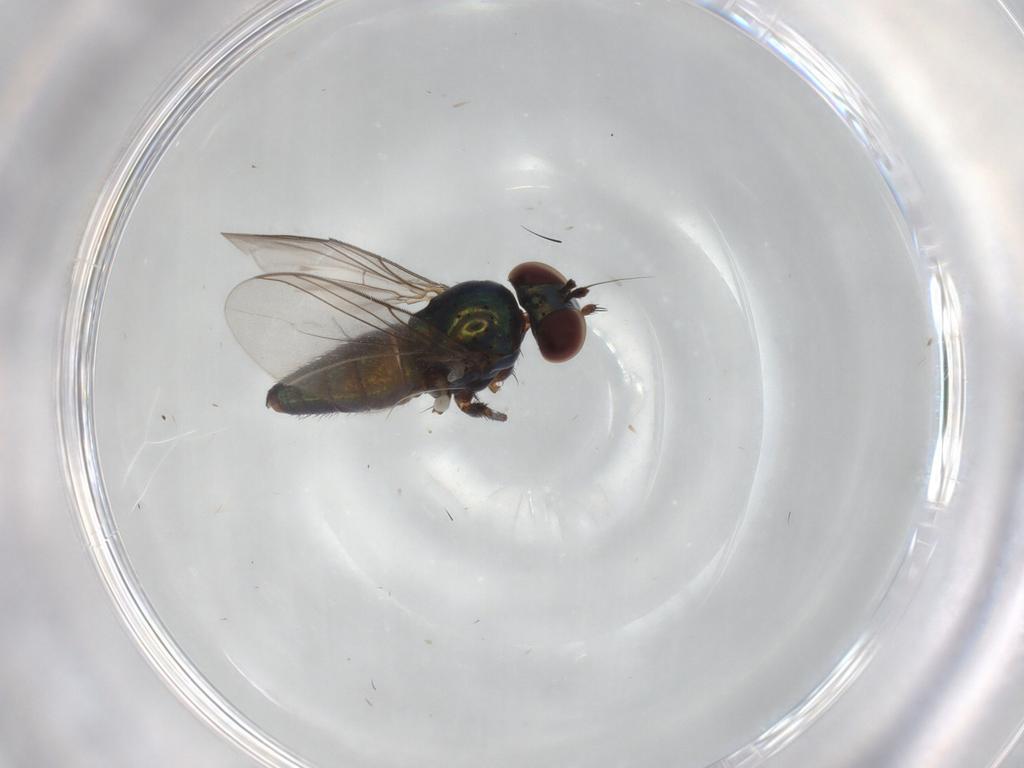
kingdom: Animalia
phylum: Arthropoda
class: Insecta
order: Diptera
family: Dolichopodidae
